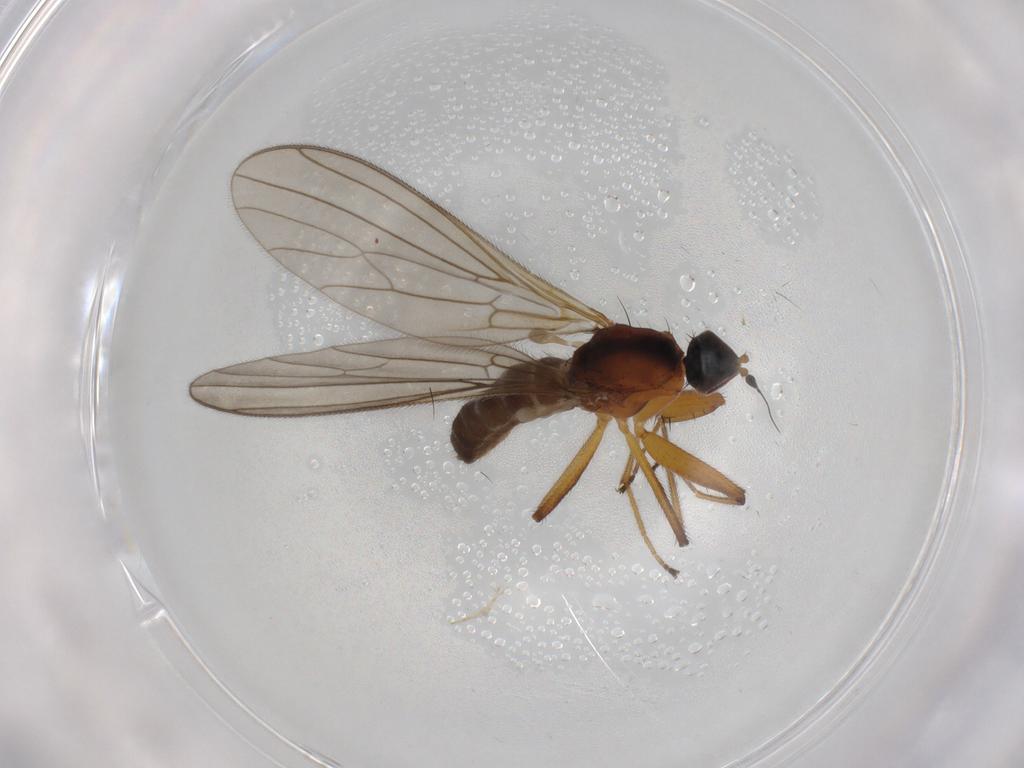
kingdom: Animalia
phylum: Arthropoda
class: Insecta
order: Diptera
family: Empididae
